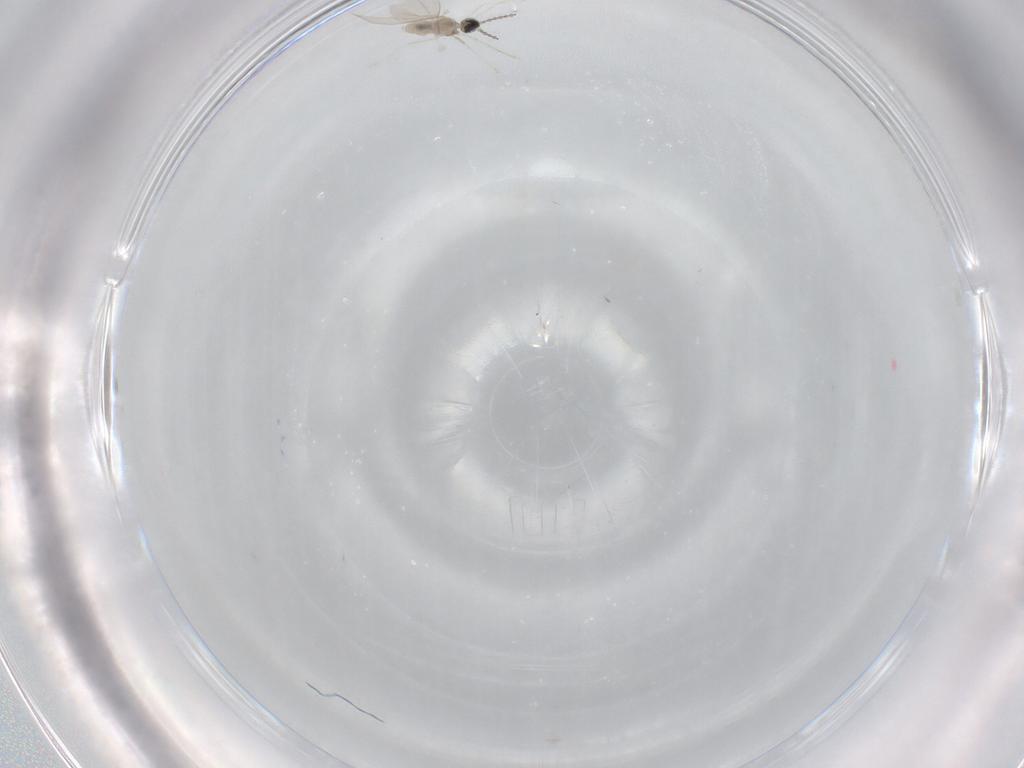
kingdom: Animalia
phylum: Arthropoda
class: Insecta
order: Diptera
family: Cecidomyiidae
